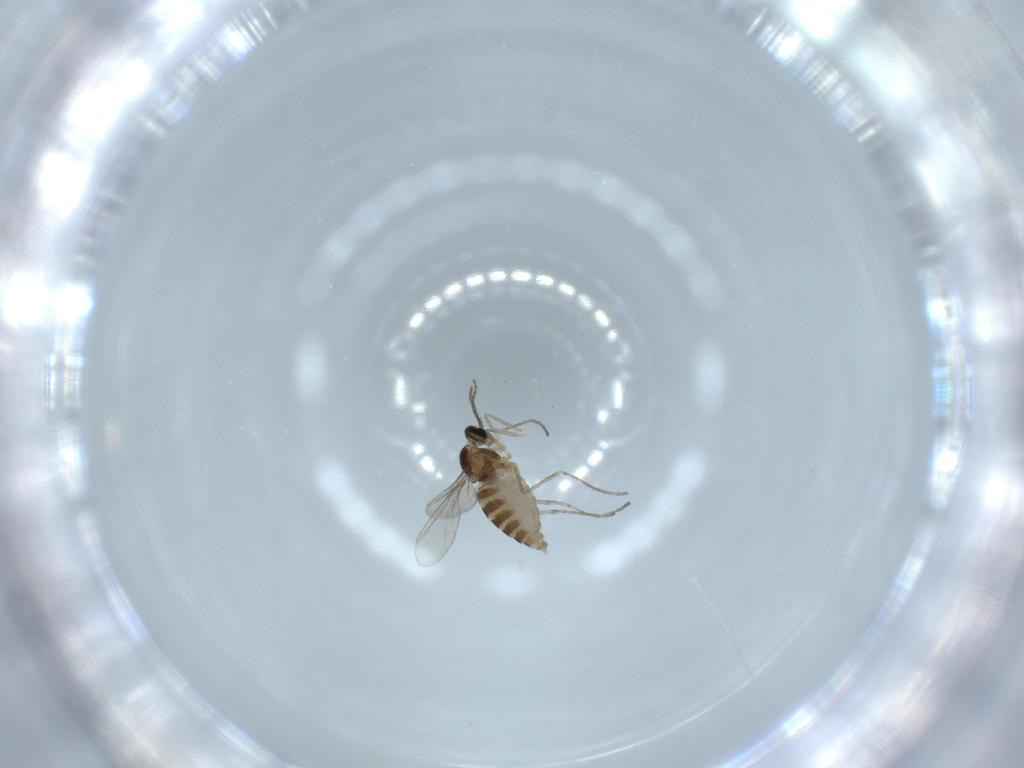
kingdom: Animalia
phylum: Arthropoda
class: Insecta
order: Diptera
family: Cecidomyiidae
